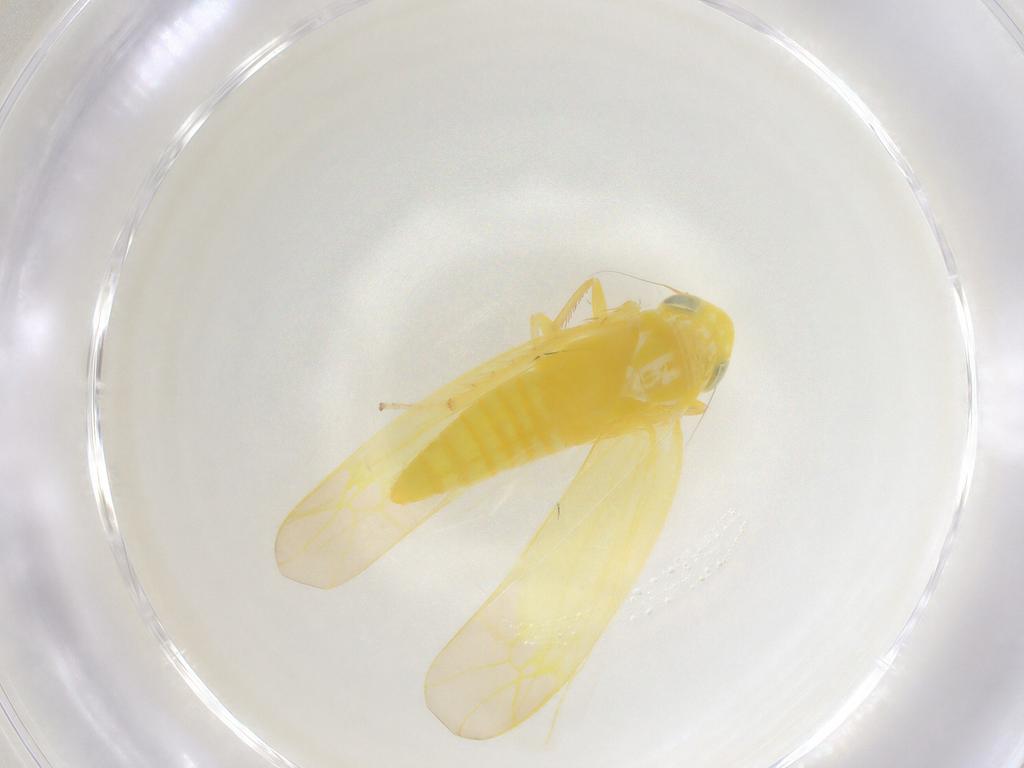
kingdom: Animalia
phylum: Arthropoda
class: Insecta
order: Hemiptera
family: Cicadellidae
